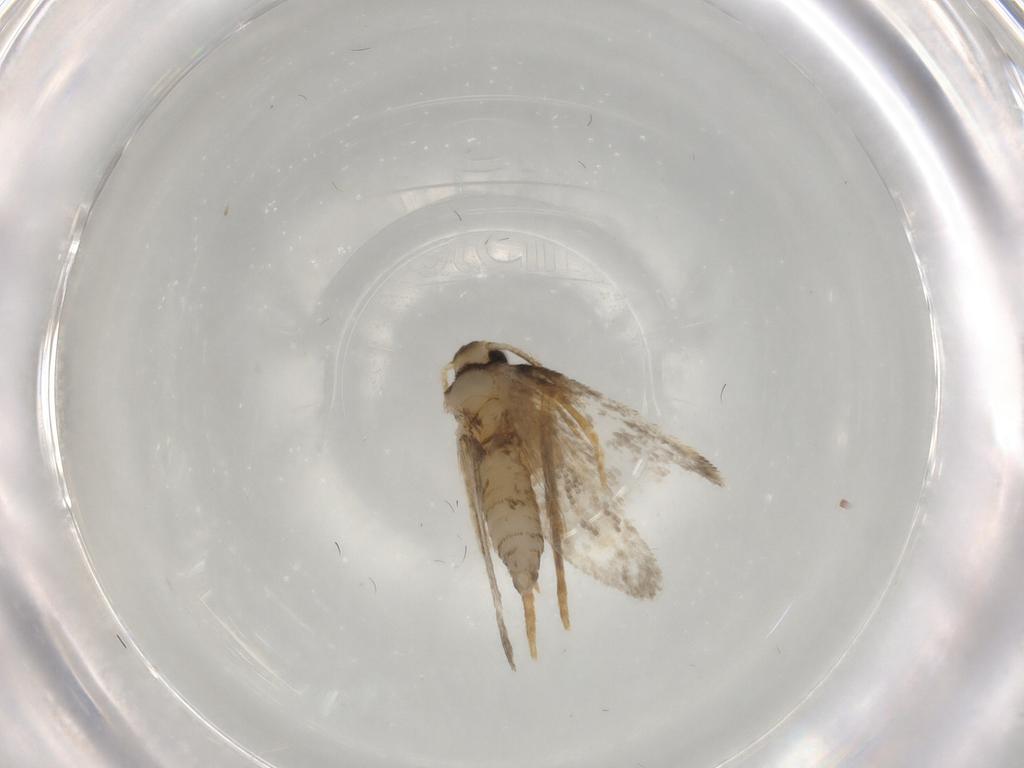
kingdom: Animalia
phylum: Arthropoda
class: Insecta
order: Lepidoptera
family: Psychidae
